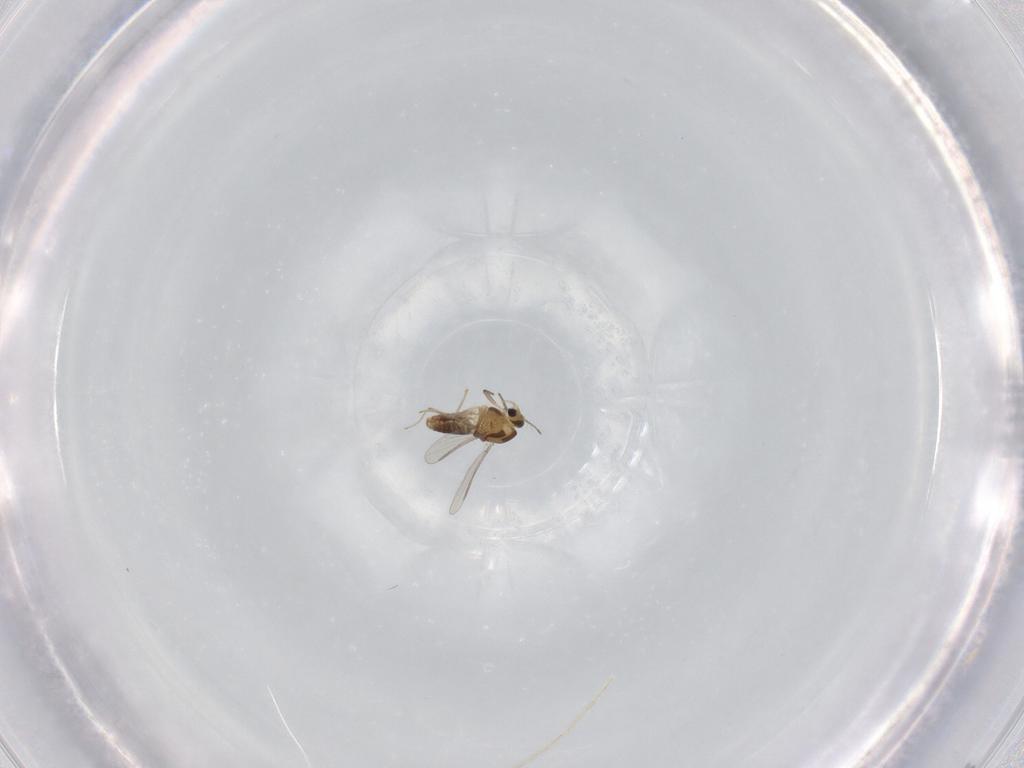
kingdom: Animalia
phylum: Arthropoda
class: Insecta
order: Diptera
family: Chironomidae
